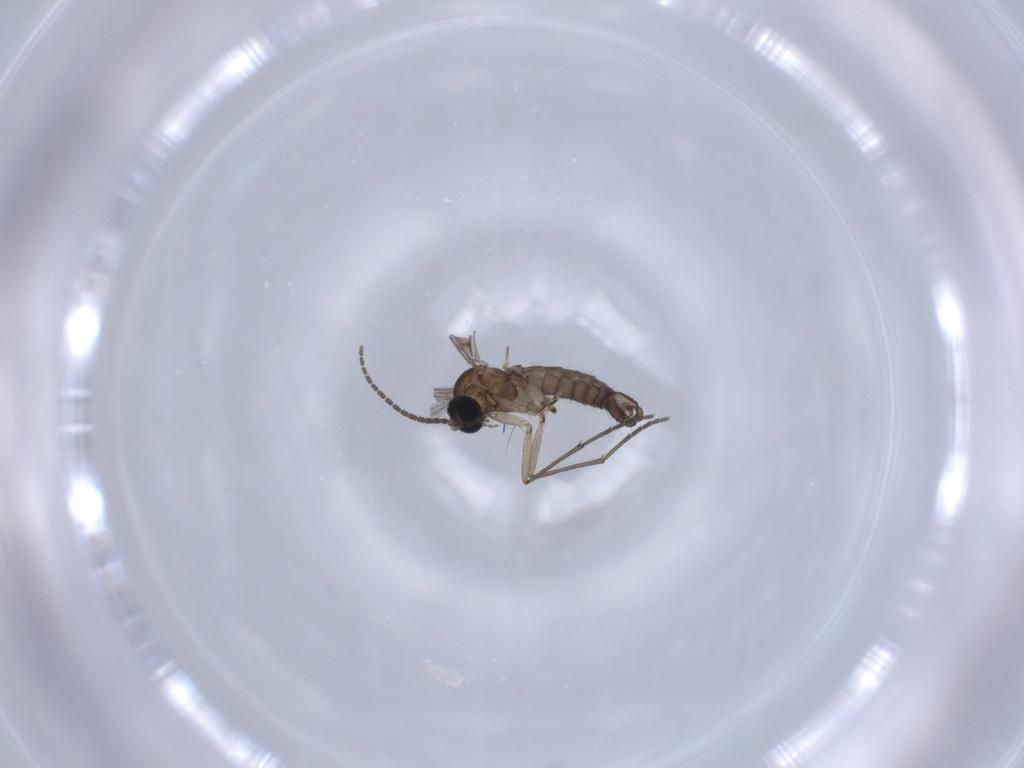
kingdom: Animalia
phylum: Arthropoda
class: Insecta
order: Diptera
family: Sciaridae
